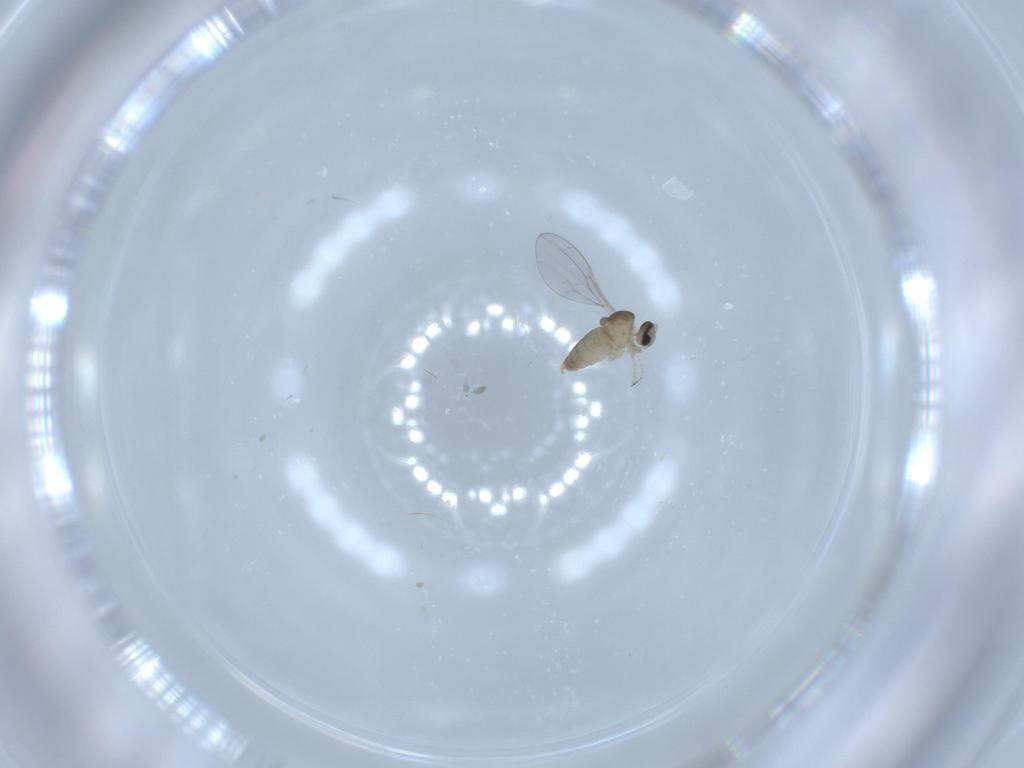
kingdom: Animalia
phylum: Arthropoda
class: Insecta
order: Diptera
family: Cecidomyiidae
